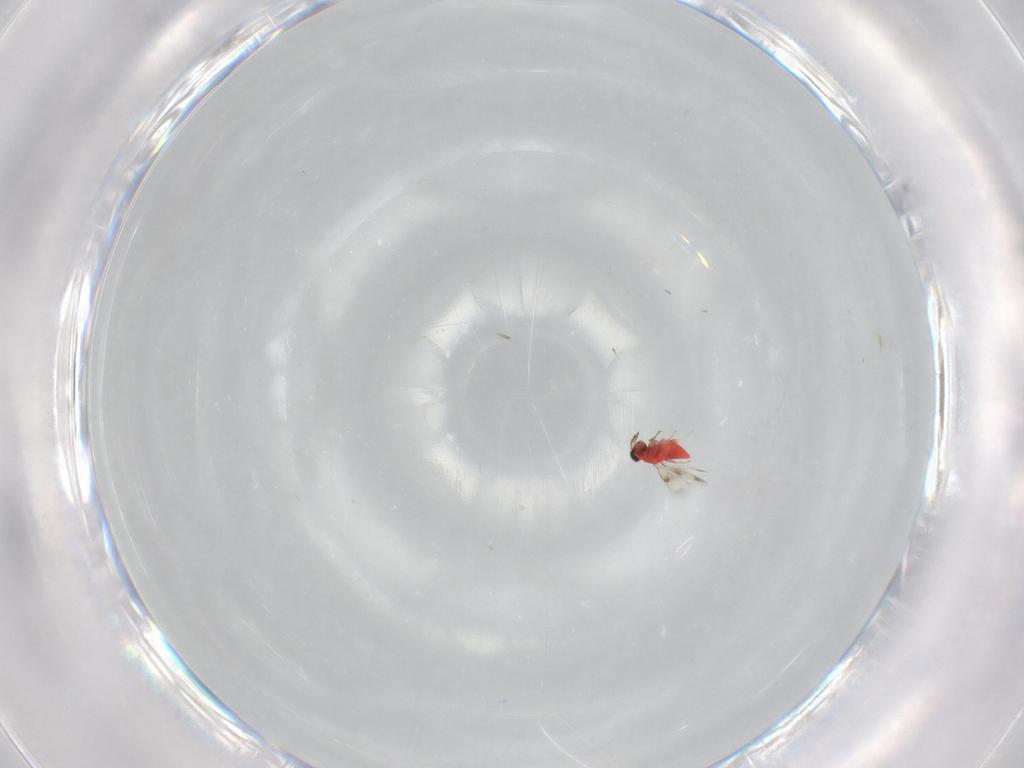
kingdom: Animalia
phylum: Arthropoda
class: Insecta
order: Hymenoptera
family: Trichogrammatidae
